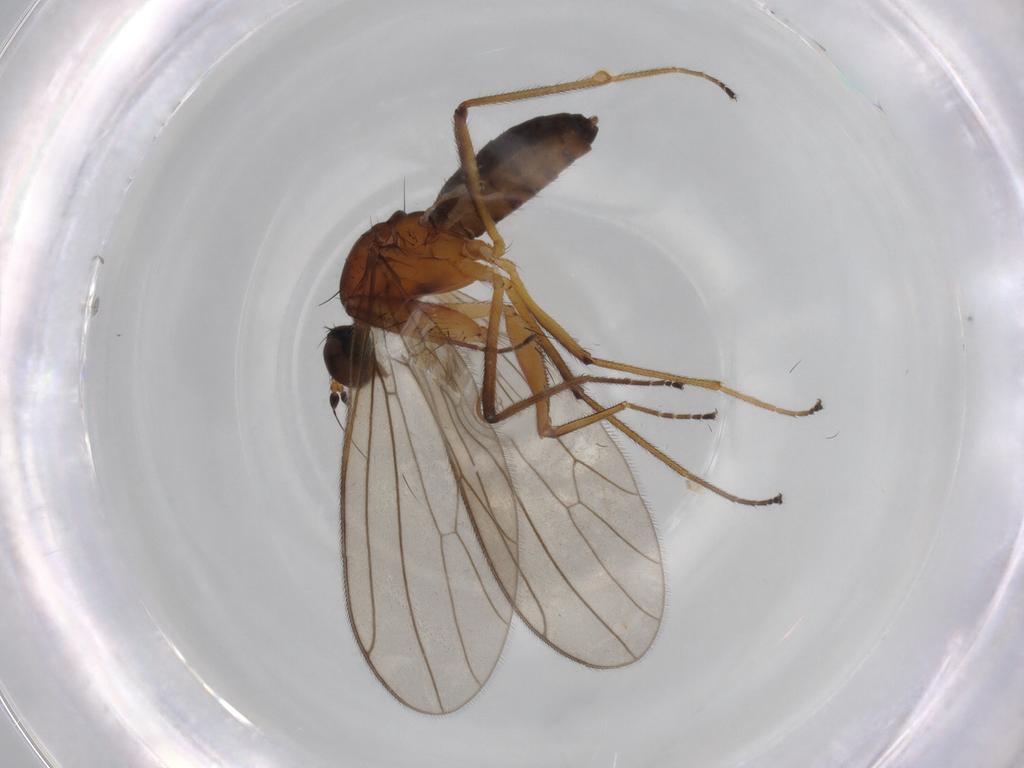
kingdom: Animalia
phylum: Arthropoda
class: Insecta
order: Diptera
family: Empididae
